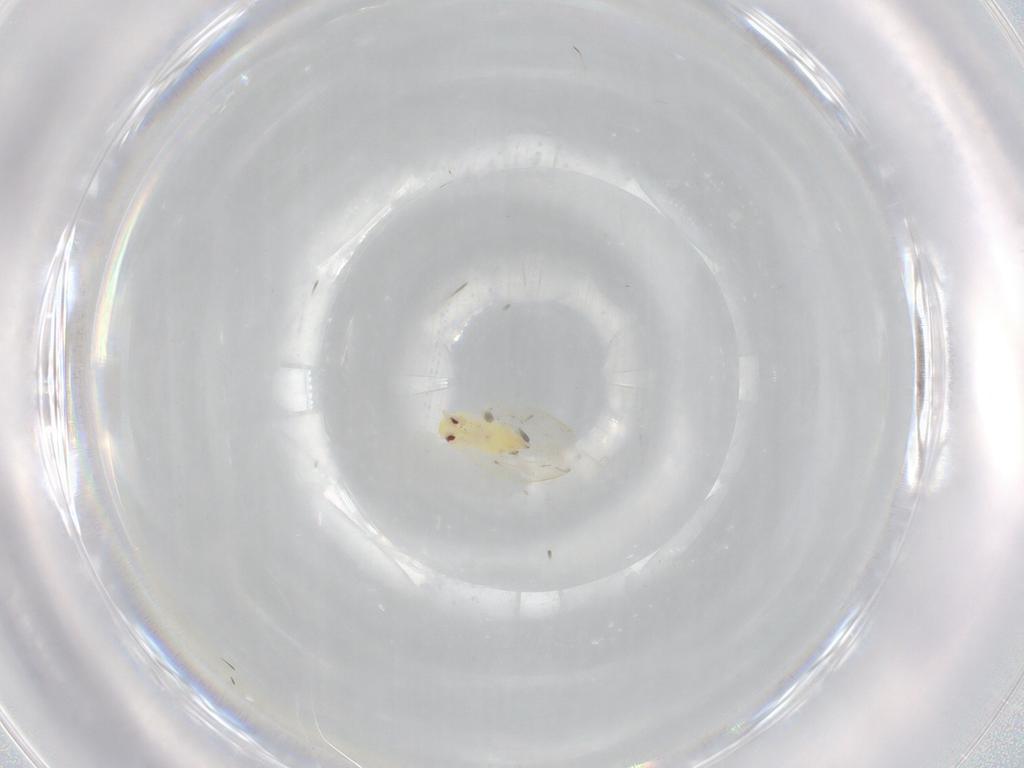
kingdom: Animalia
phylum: Arthropoda
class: Insecta
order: Hemiptera
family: Aleyrodidae
